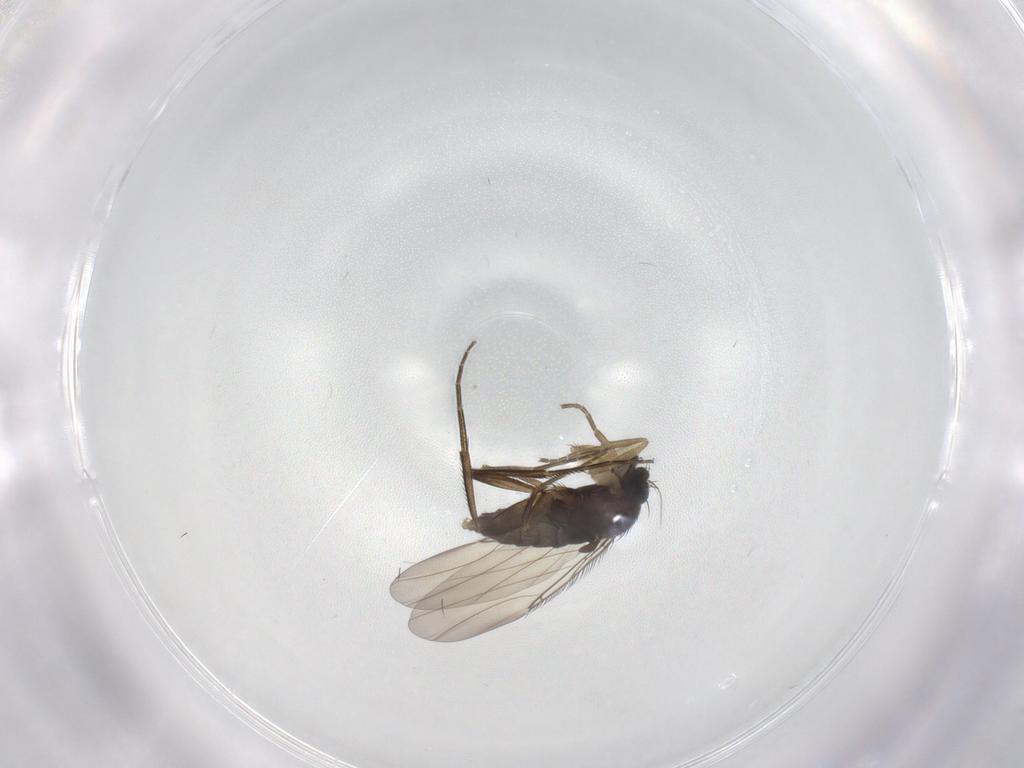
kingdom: Animalia
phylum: Arthropoda
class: Insecta
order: Diptera
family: Phoridae
